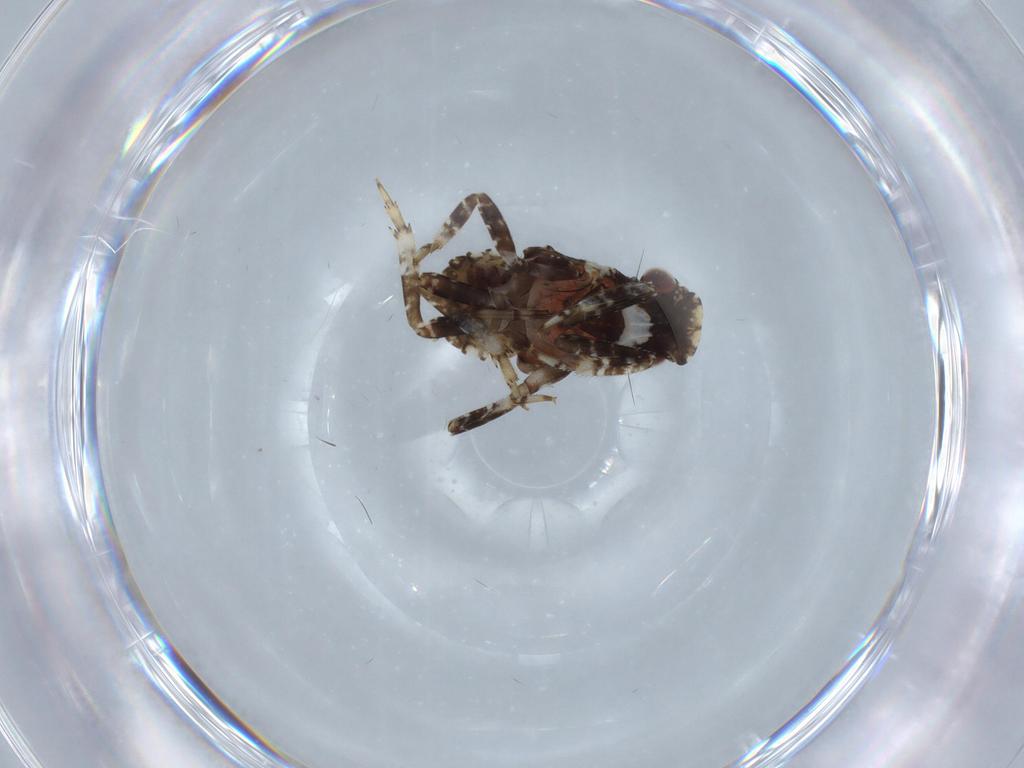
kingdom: Animalia
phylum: Arthropoda
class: Insecta
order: Hemiptera
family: Fulgoridae
